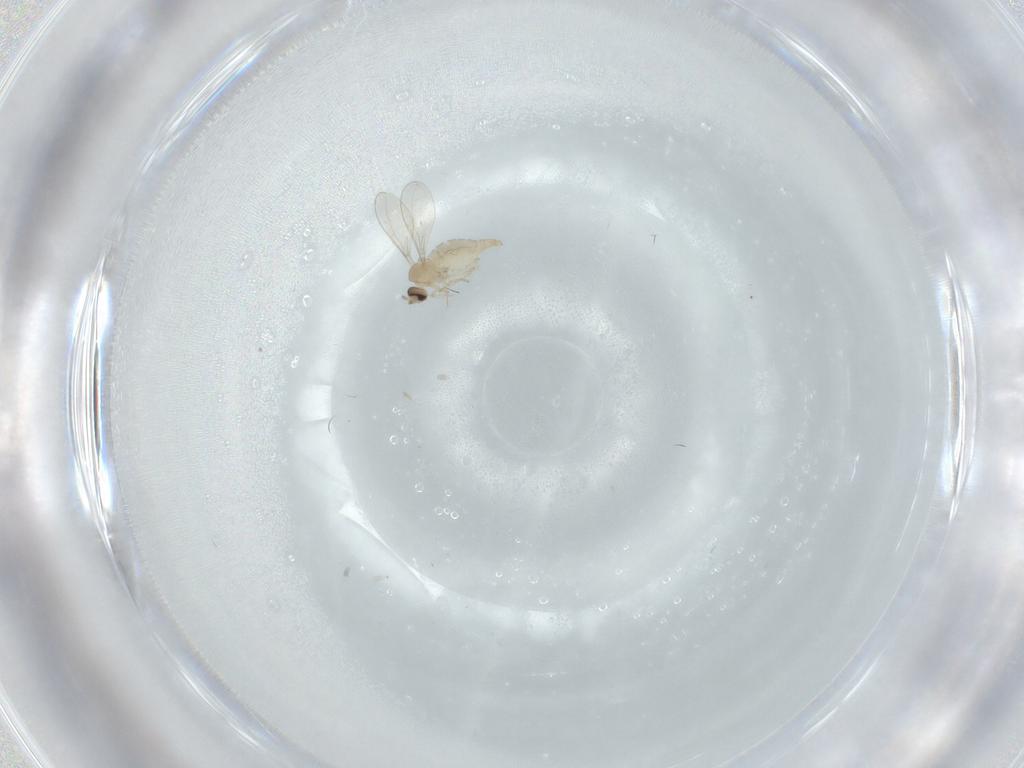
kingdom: Animalia
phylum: Arthropoda
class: Insecta
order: Diptera
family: Cecidomyiidae
